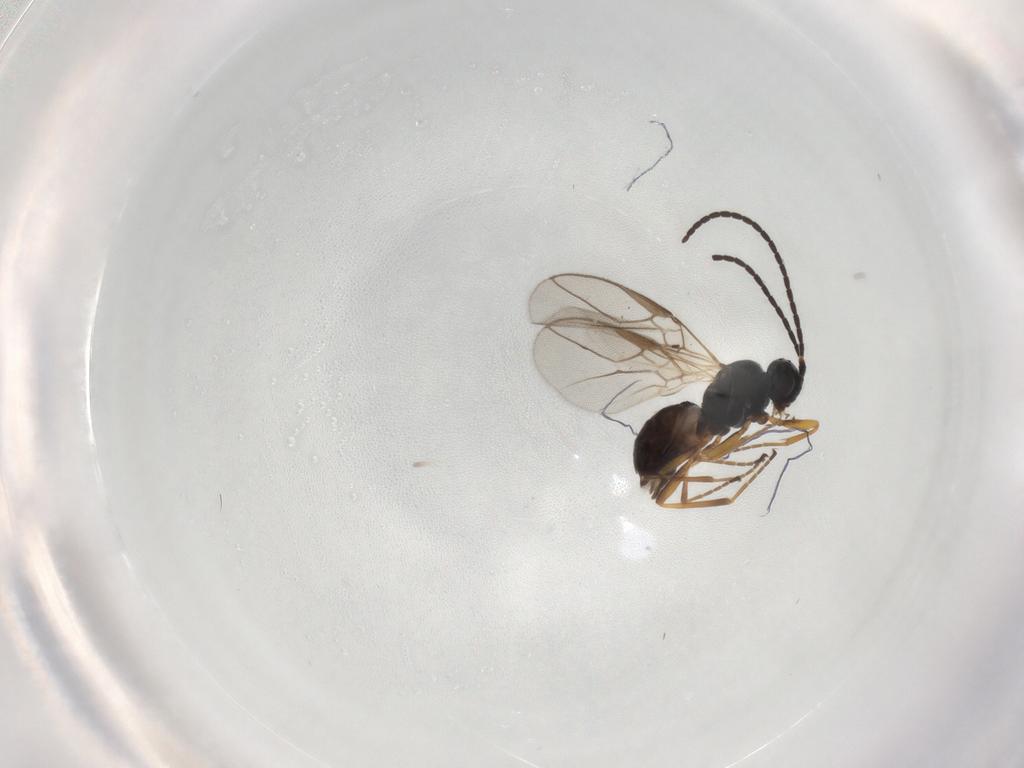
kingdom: Animalia
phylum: Arthropoda
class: Insecta
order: Hymenoptera
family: Braconidae
